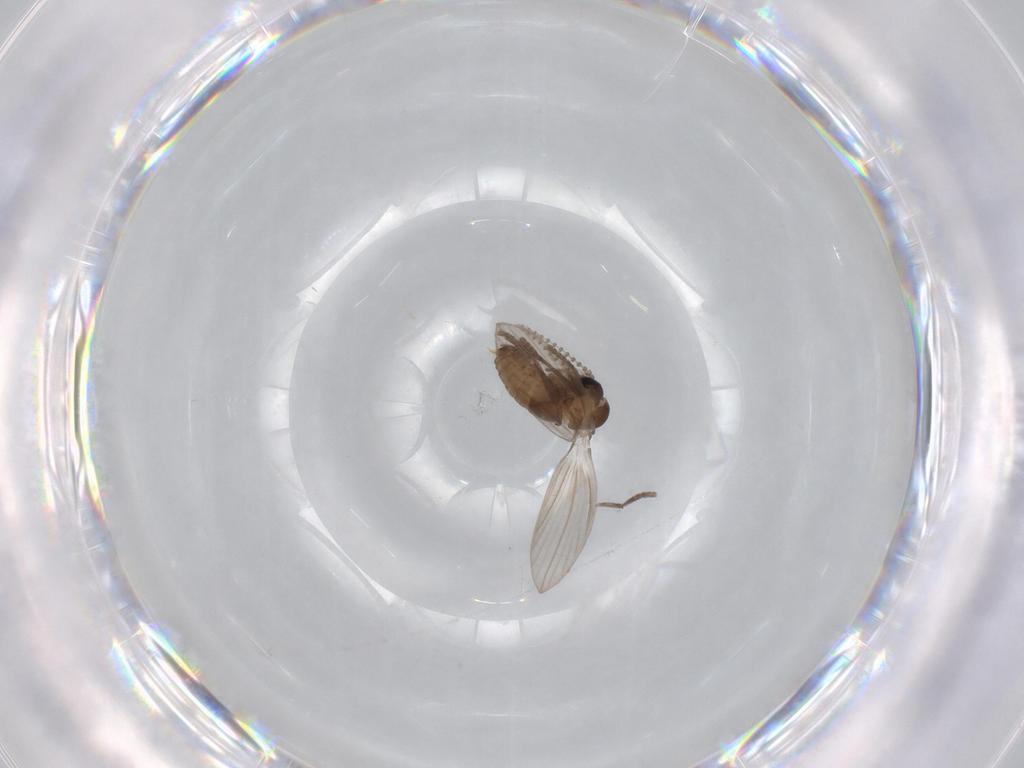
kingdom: Animalia
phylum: Arthropoda
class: Insecta
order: Diptera
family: Psychodidae
